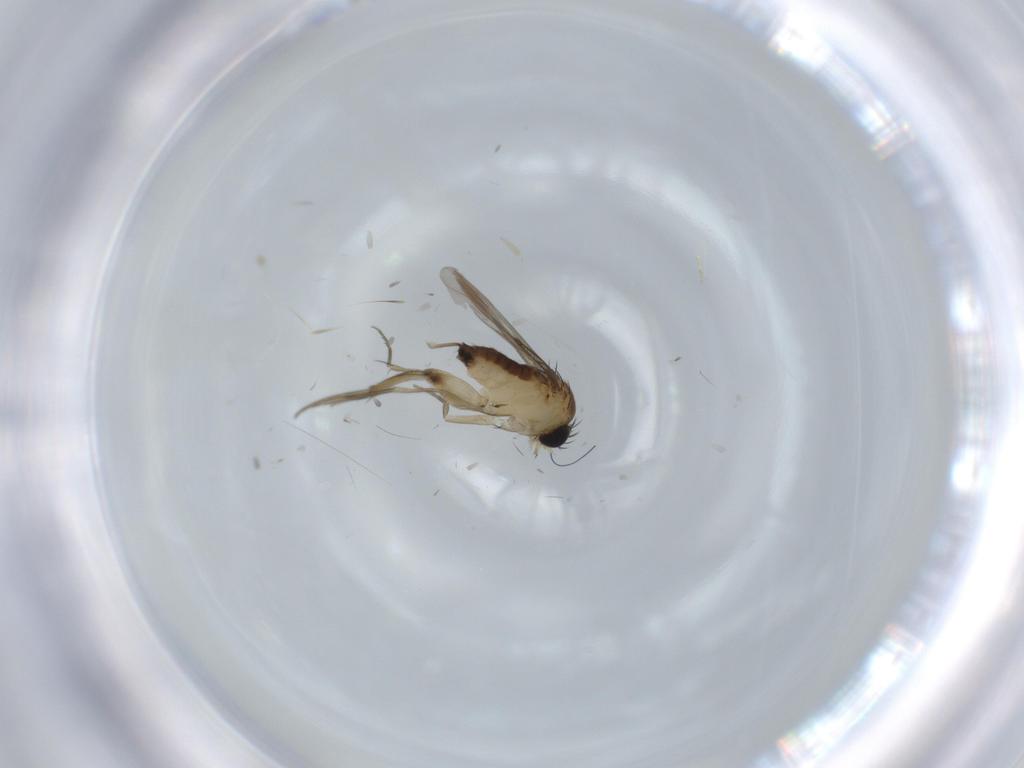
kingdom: Animalia
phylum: Arthropoda
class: Insecta
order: Diptera
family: Phoridae
